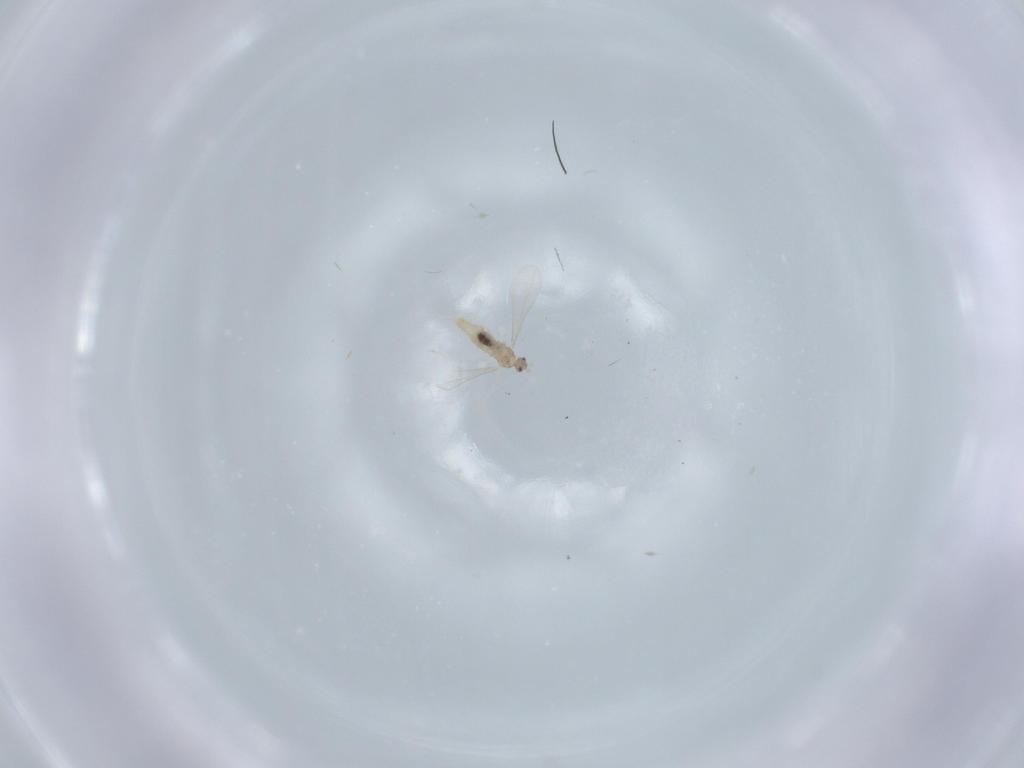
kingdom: Animalia
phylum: Arthropoda
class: Insecta
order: Diptera
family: Cecidomyiidae
